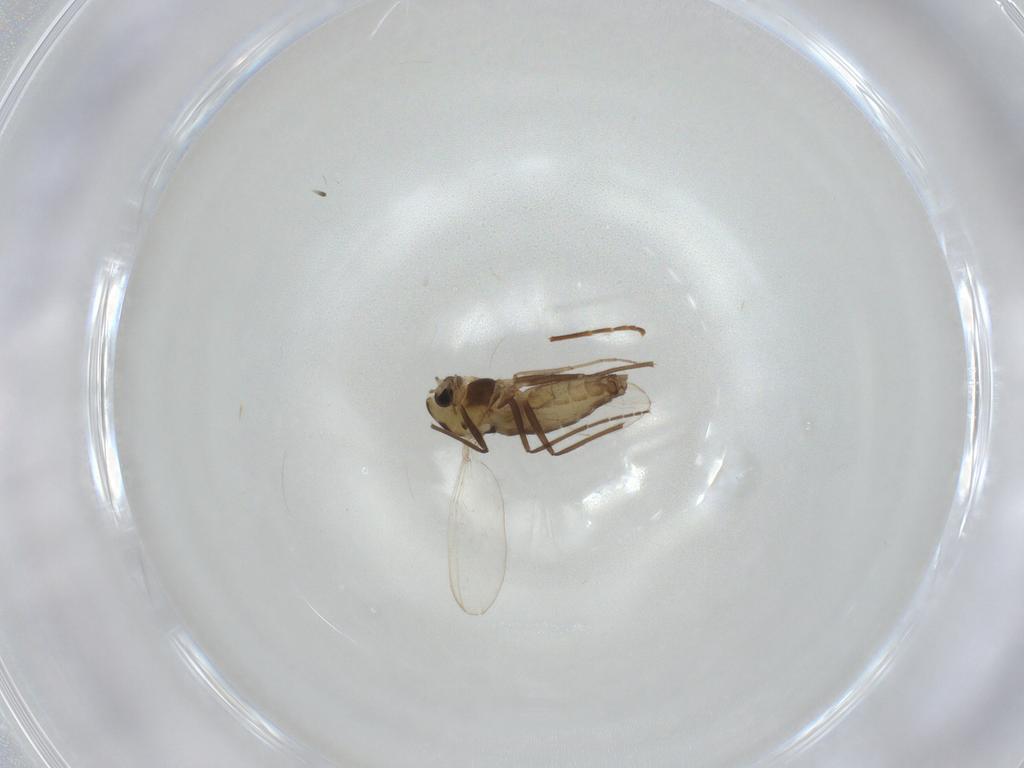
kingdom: Animalia
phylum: Arthropoda
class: Insecta
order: Diptera
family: Chironomidae
